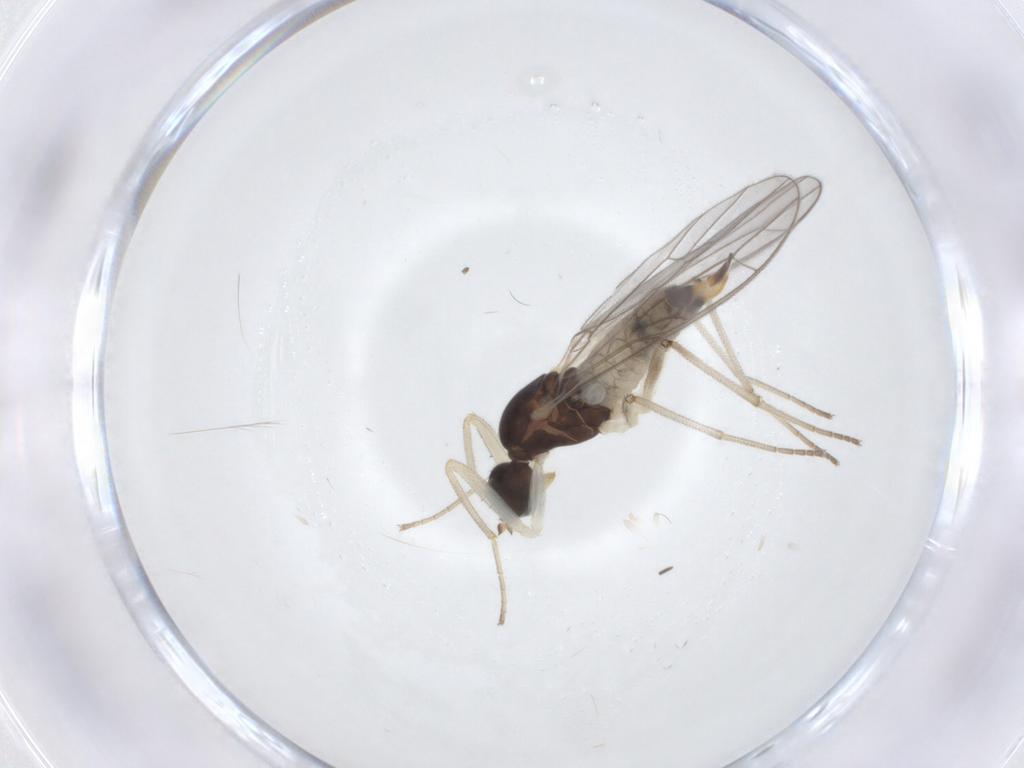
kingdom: Animalia
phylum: Arthropoda
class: Insecta
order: Diptera
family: Empididae
